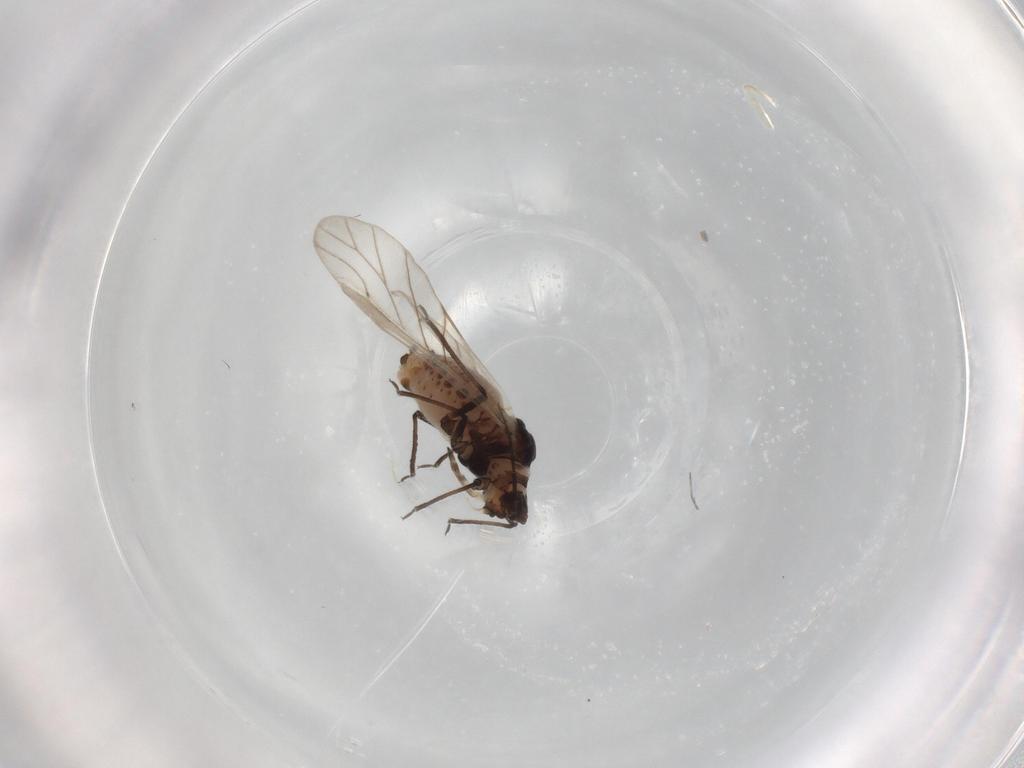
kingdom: Animalia
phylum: Arthropoda
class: Insecta
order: Hemiptera
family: Aphididae
